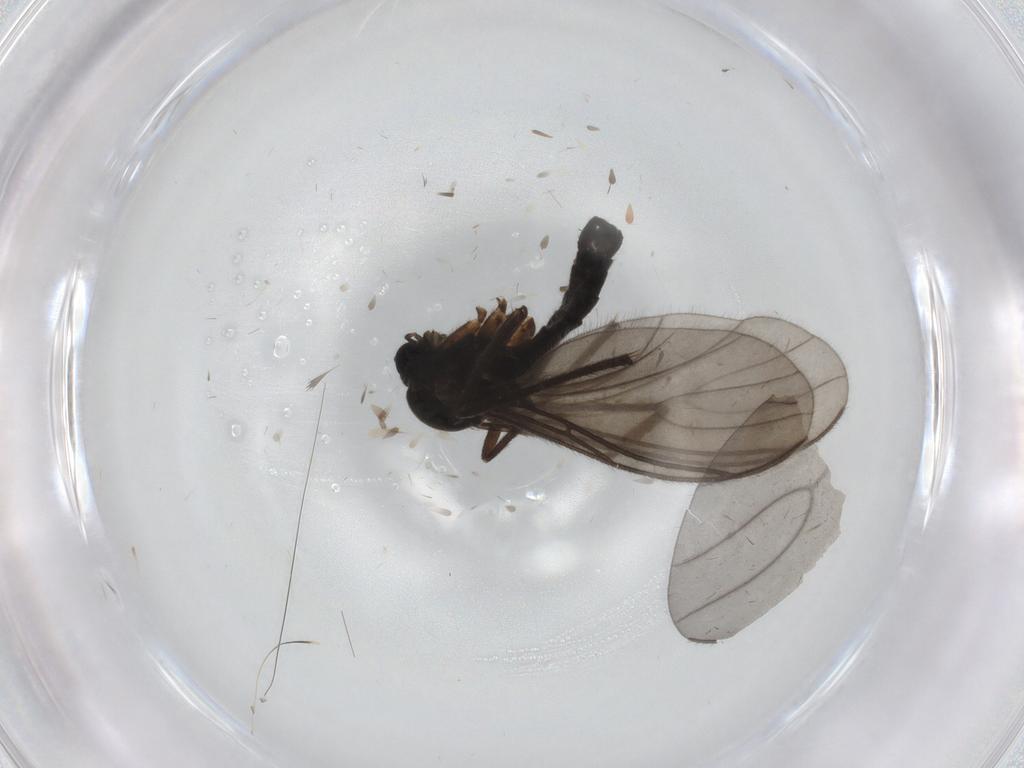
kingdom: Animalia
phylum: Arthropoda
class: Insecta
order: Diptera
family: Sciaridae
